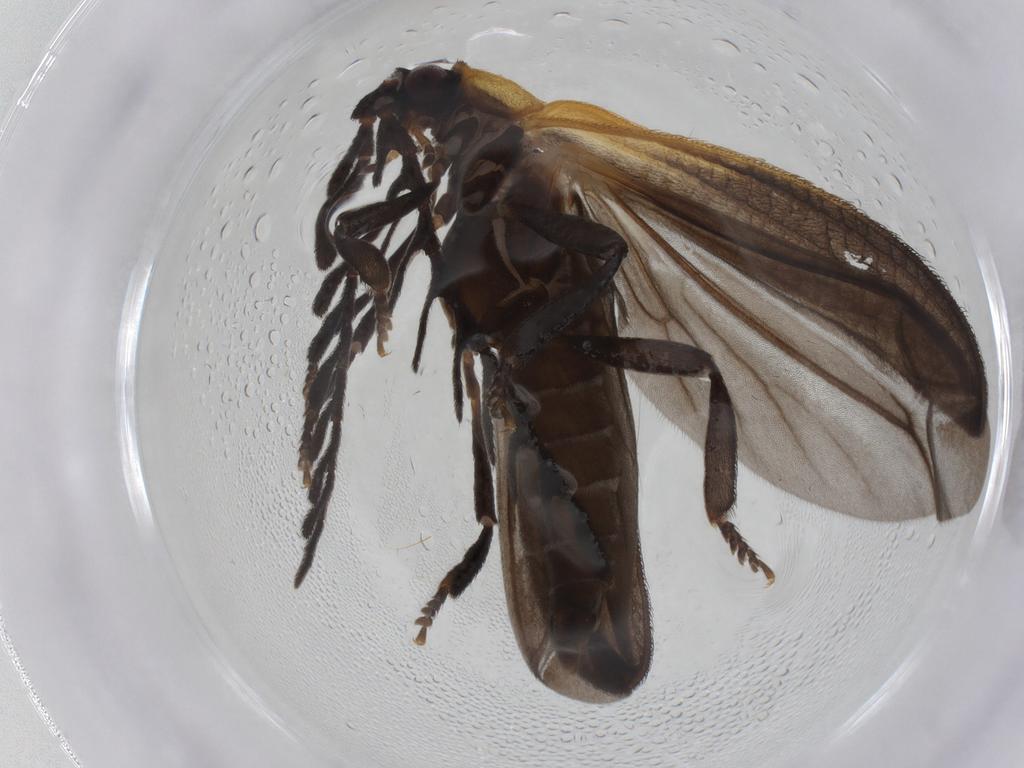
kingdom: Animalia
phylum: Arthropoda
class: Insecta
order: Coleoptera
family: Lycidae
